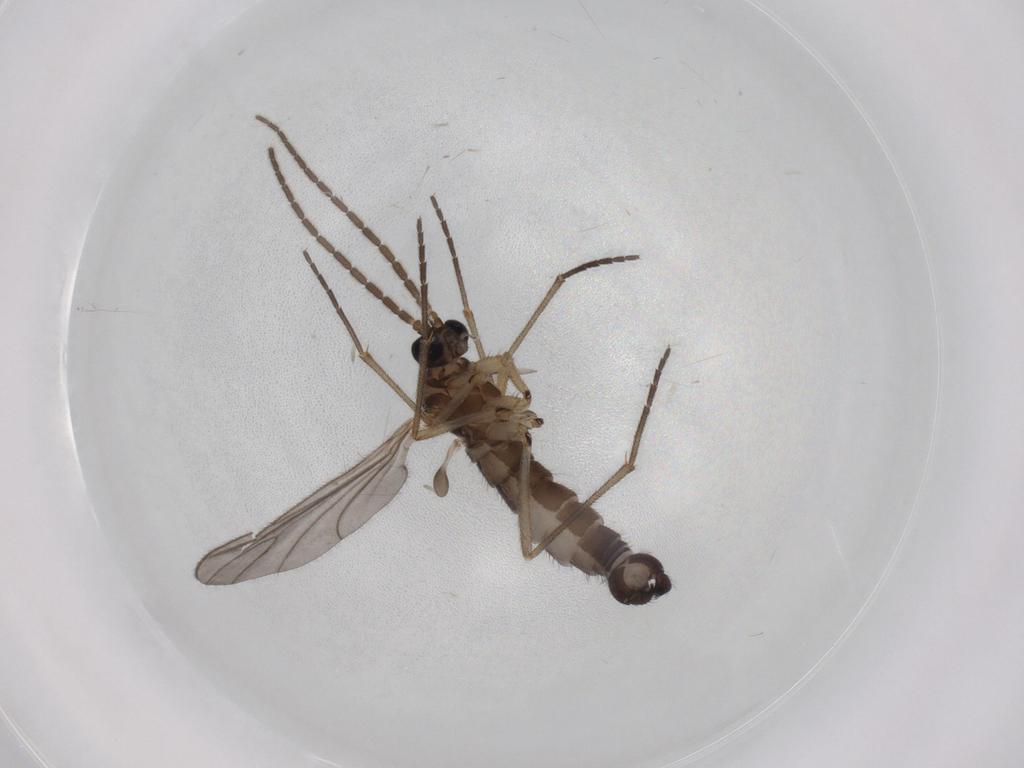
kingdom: Animalia
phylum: Arthropoda
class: Insecta
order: Diptera
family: Sciaridae
